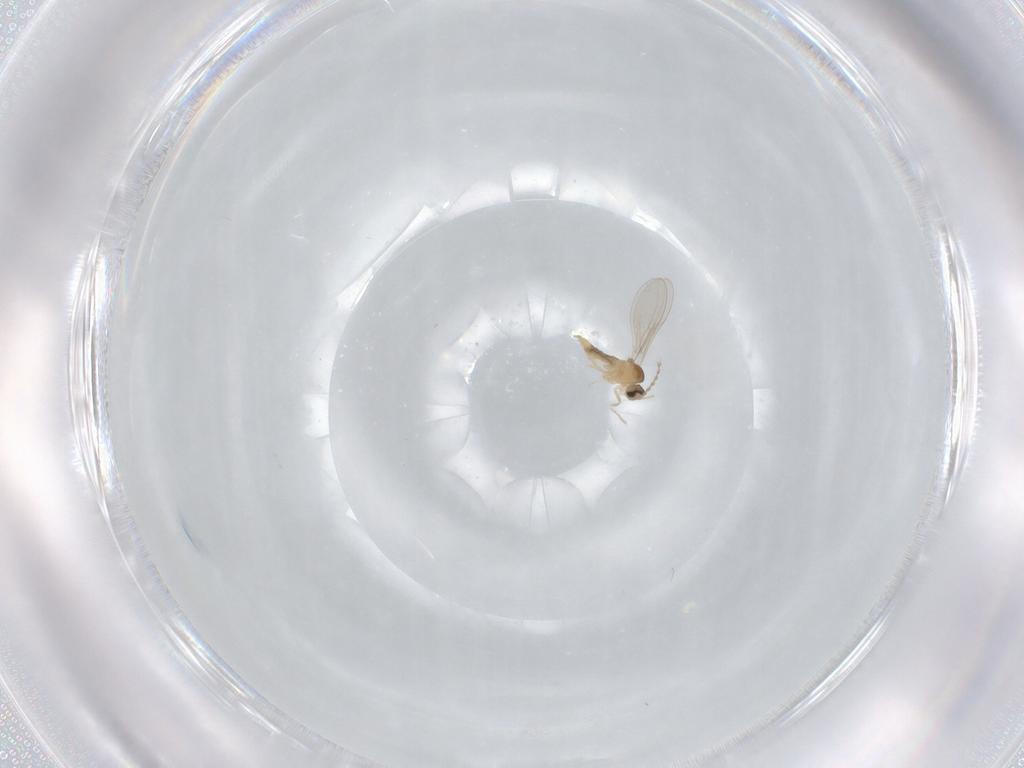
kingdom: Animalia
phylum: Arthropoda
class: Insecta
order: Diptera
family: Cecidomyiidae
